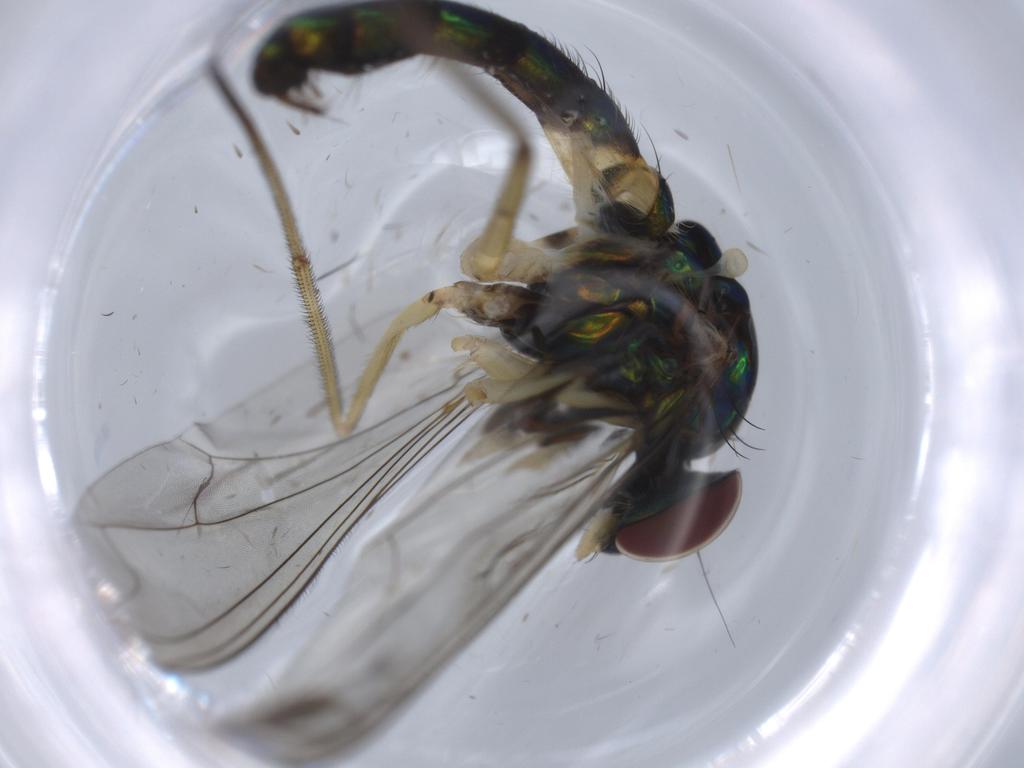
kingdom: Animalia
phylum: Arthropoda
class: Insecta
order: Diptera
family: Dolichopodidae
